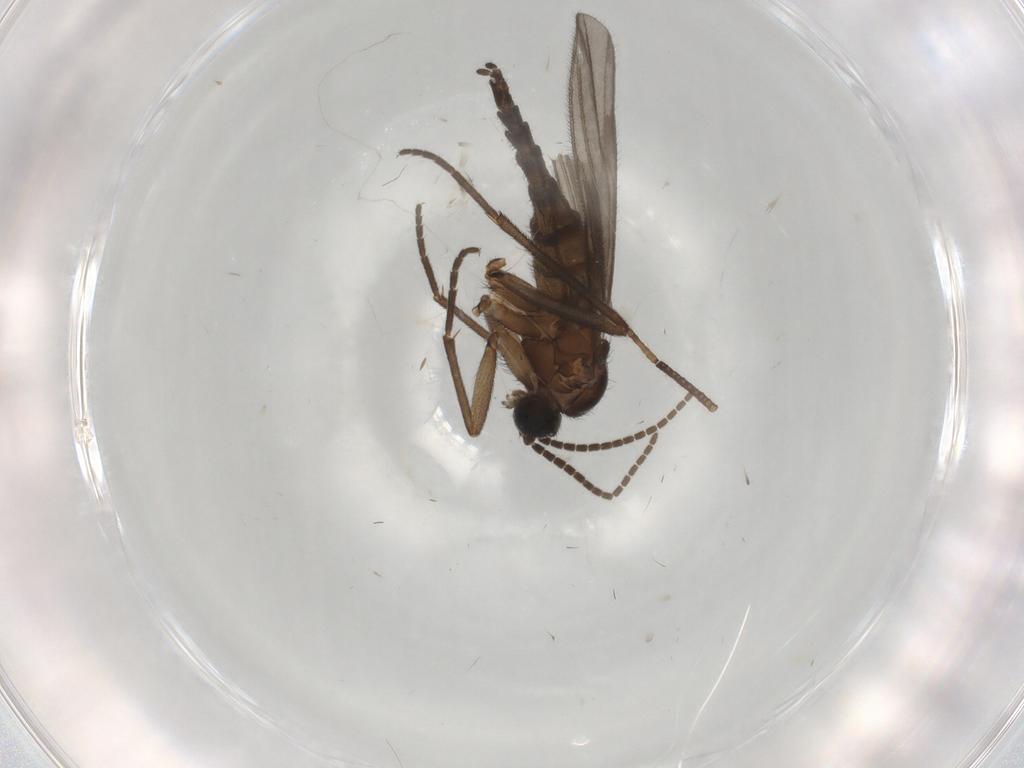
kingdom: Animalia
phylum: Arthropoda
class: Insecta
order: Diptera
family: Sciaridae
